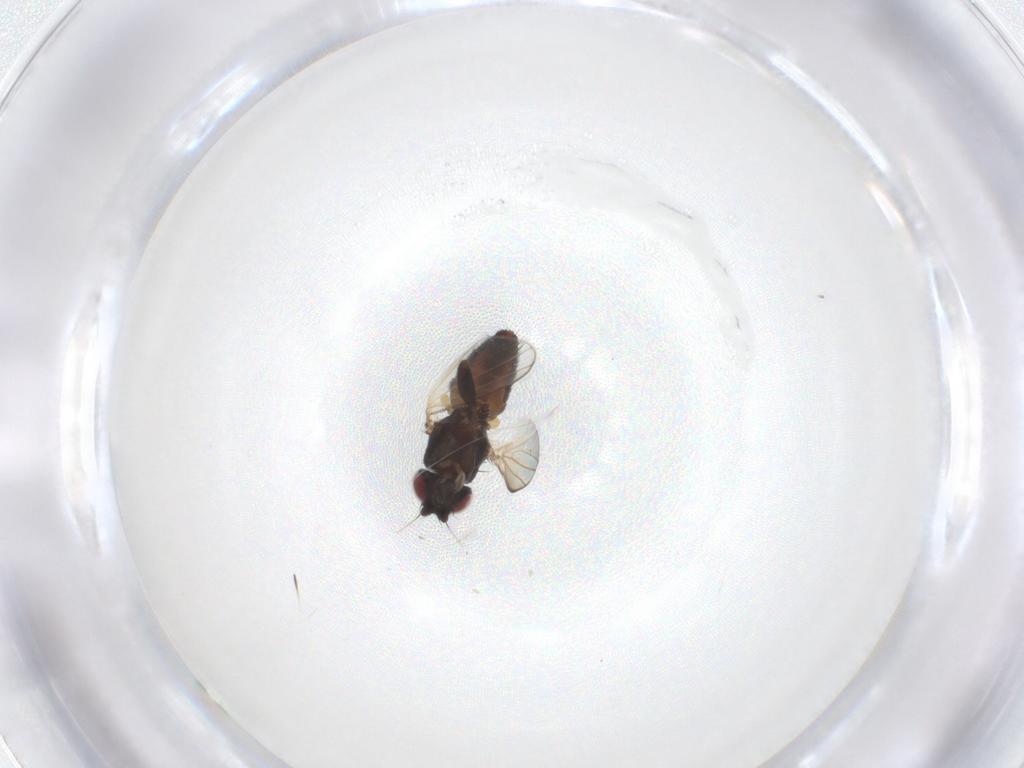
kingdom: Animalia
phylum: Arthropoda
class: Insecta
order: Diptera
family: Milichiidae
